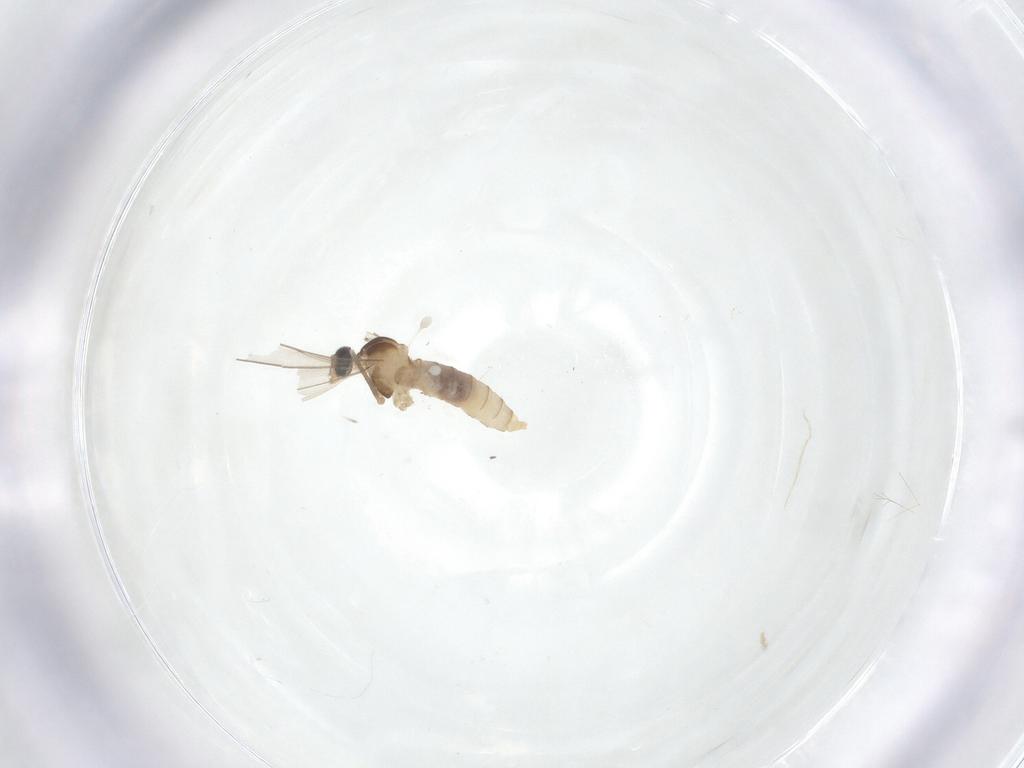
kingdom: Animalia
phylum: Arthropoda
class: Insecta
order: Diptera
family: Cecidomyiidae
